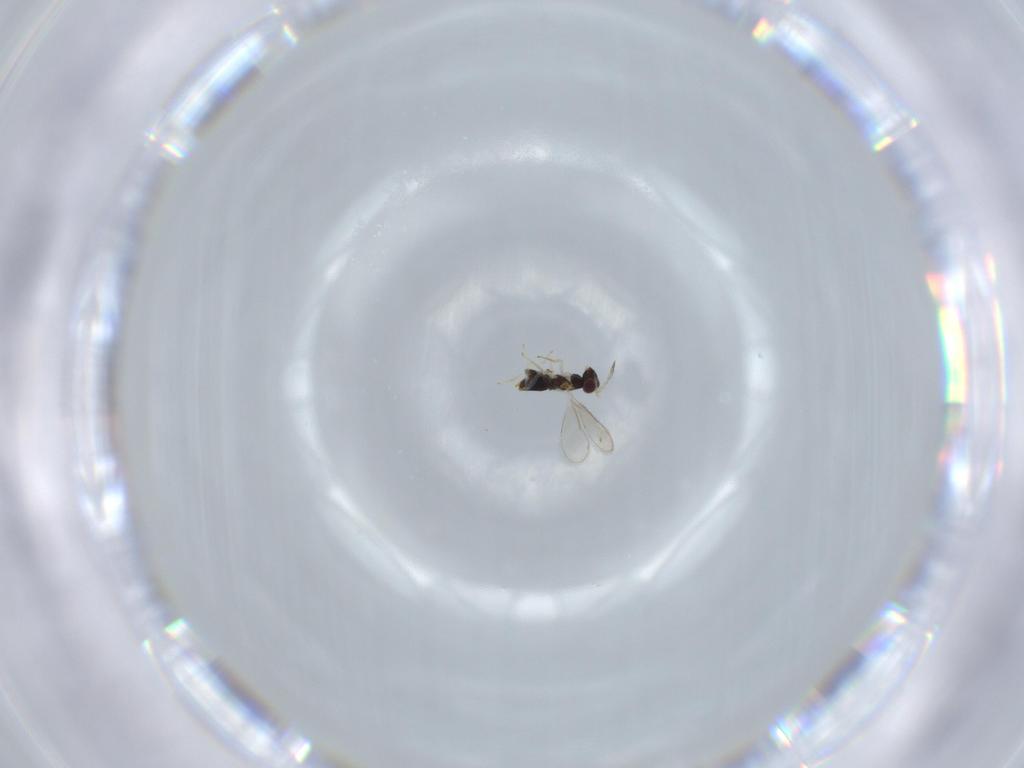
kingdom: Animalia
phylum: Arthropoda
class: Insecta
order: Hymenoptera
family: Aphelinidae
